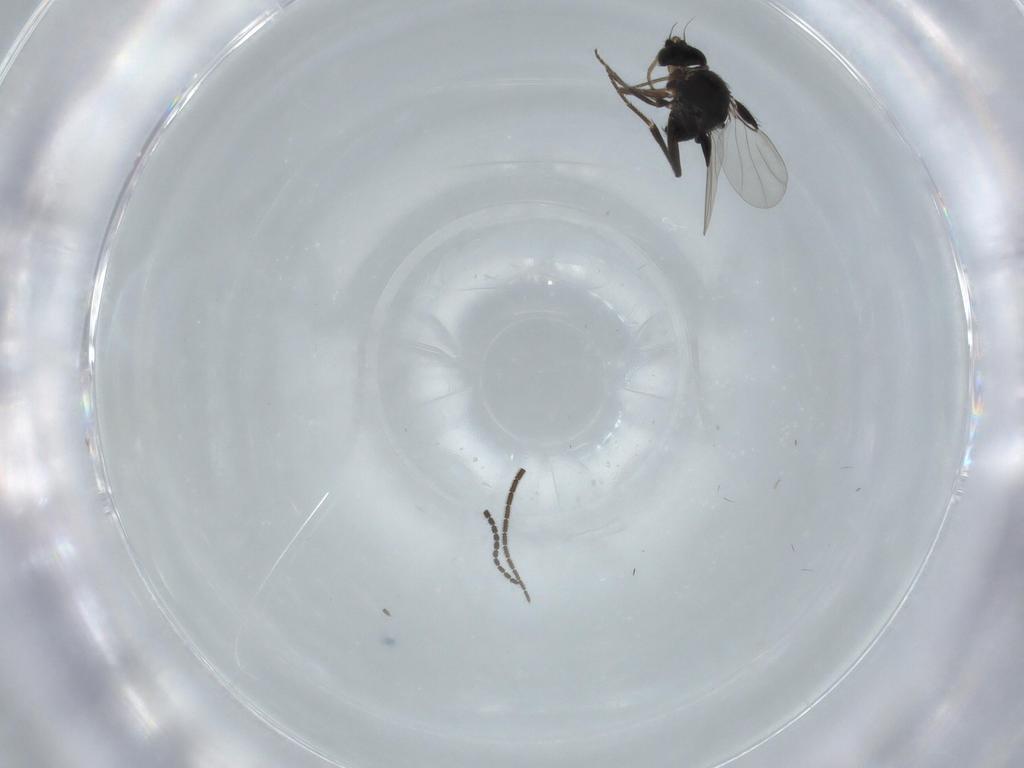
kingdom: Animalia
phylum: Arthropoda
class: Insecta
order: Diptera
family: Phoridae
